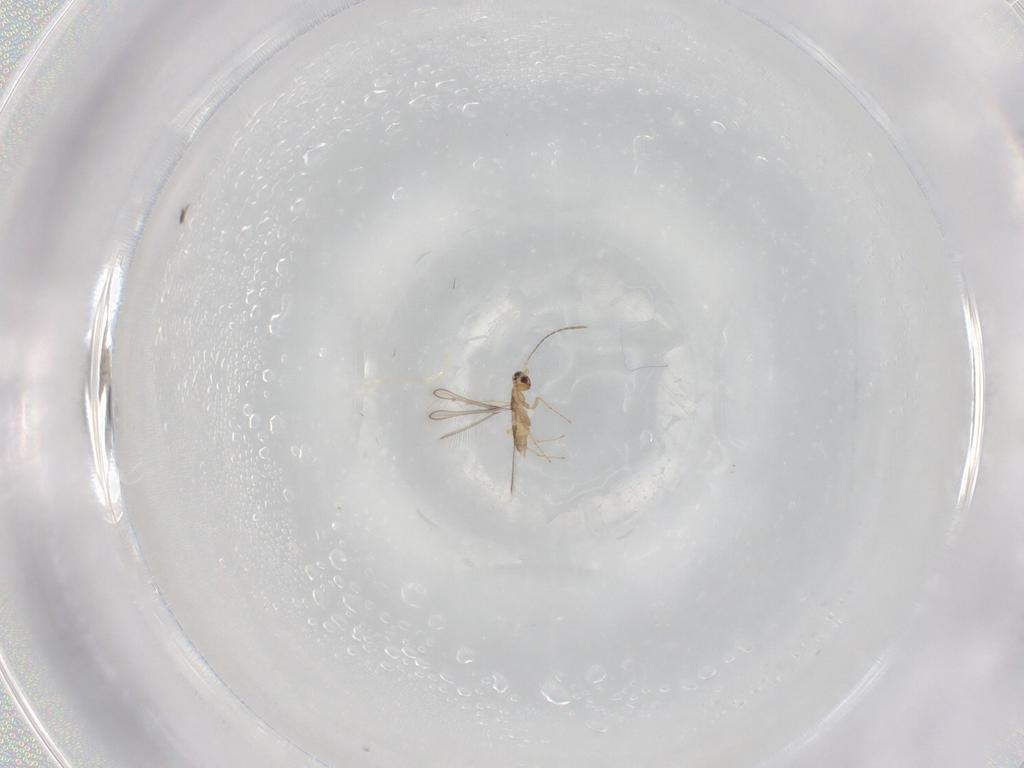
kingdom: Animalia
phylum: Arthropoda
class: Insecta
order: Hymenoptera
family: Mymaridae
